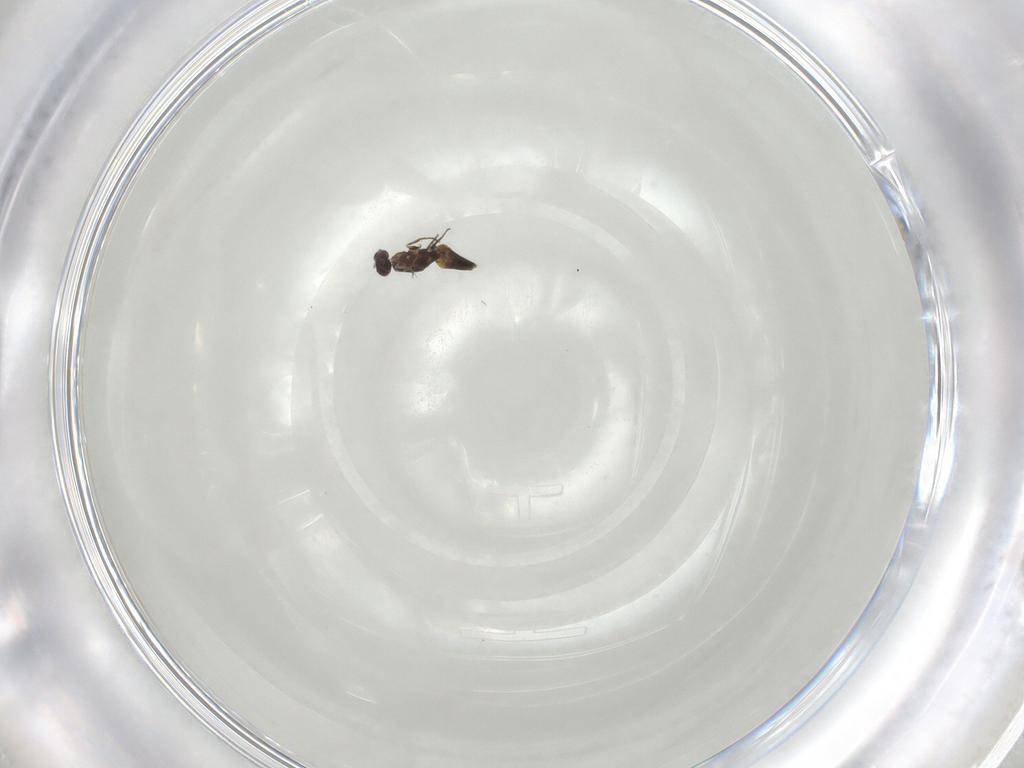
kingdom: Animalia
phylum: Arthropoda
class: Insecta
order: Hymenoptera
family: Mymaridae
